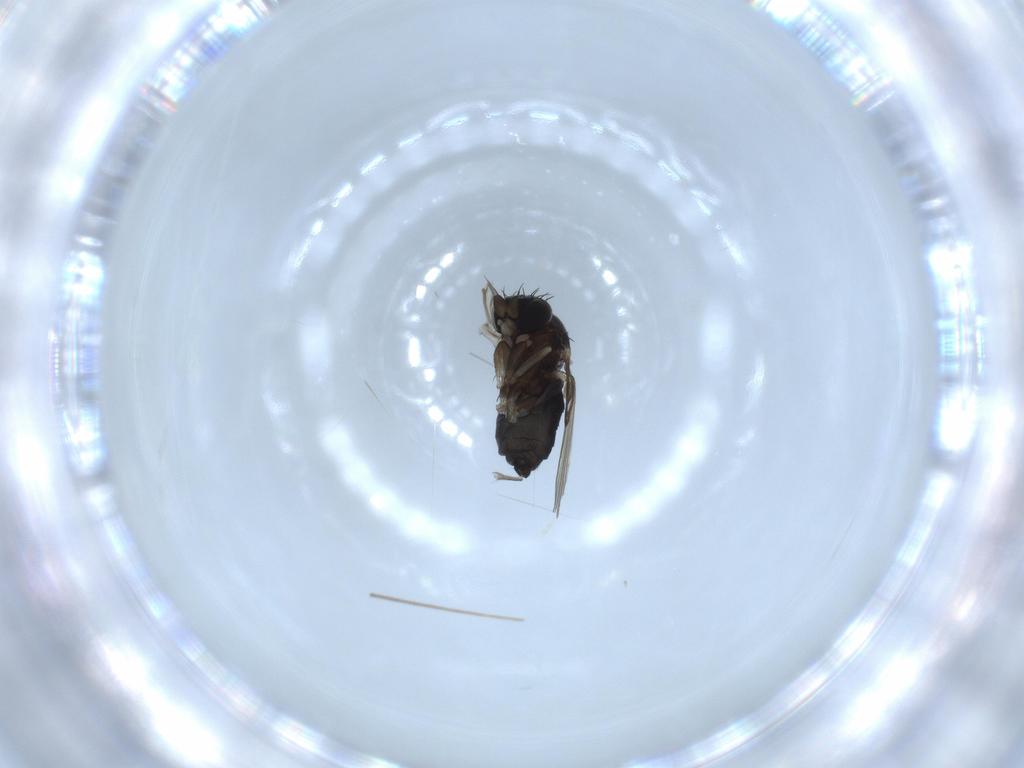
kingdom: Animalia
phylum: Arthropoda
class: Insecta
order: Diptera
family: Phoridae
